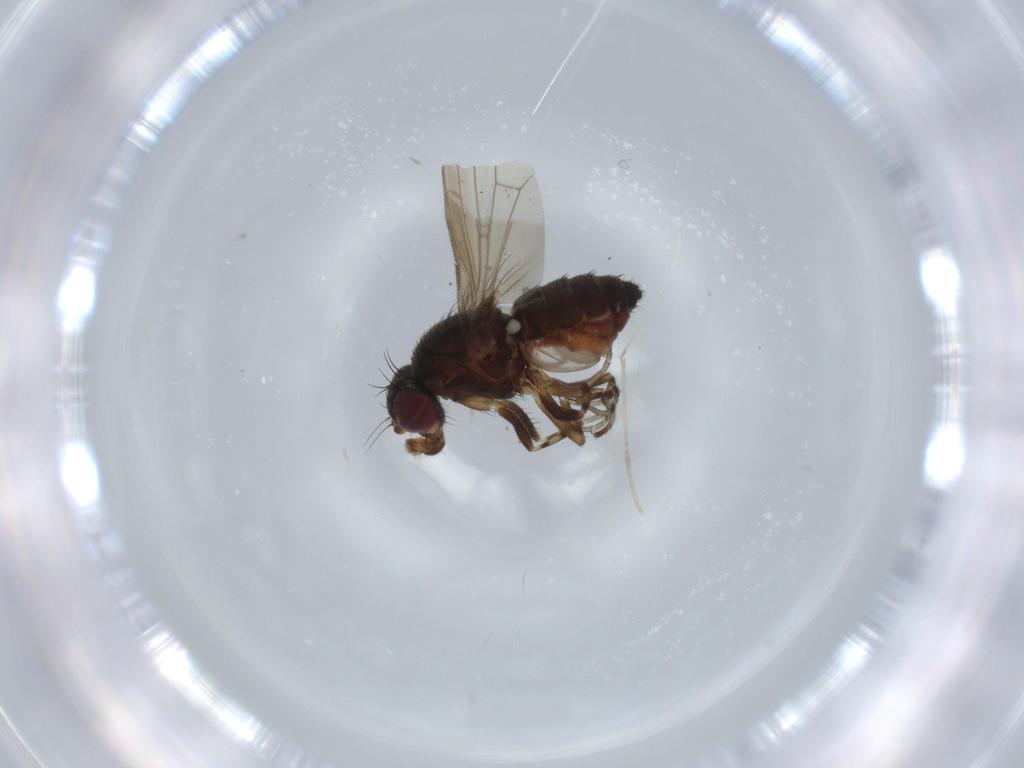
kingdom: Animalia
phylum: Arthropoda
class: Insecta
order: Diptera
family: Heleomyzidae
